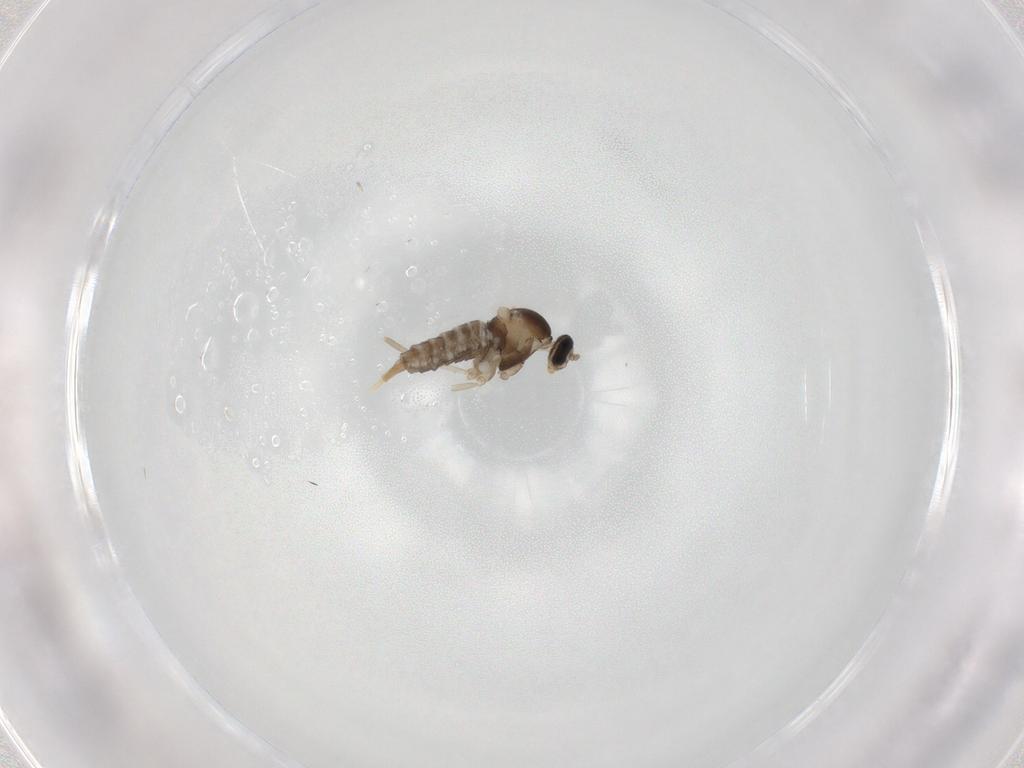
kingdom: Animalia
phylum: Arthropoda
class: Insecta
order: Diptera
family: Cecidomyiidae
